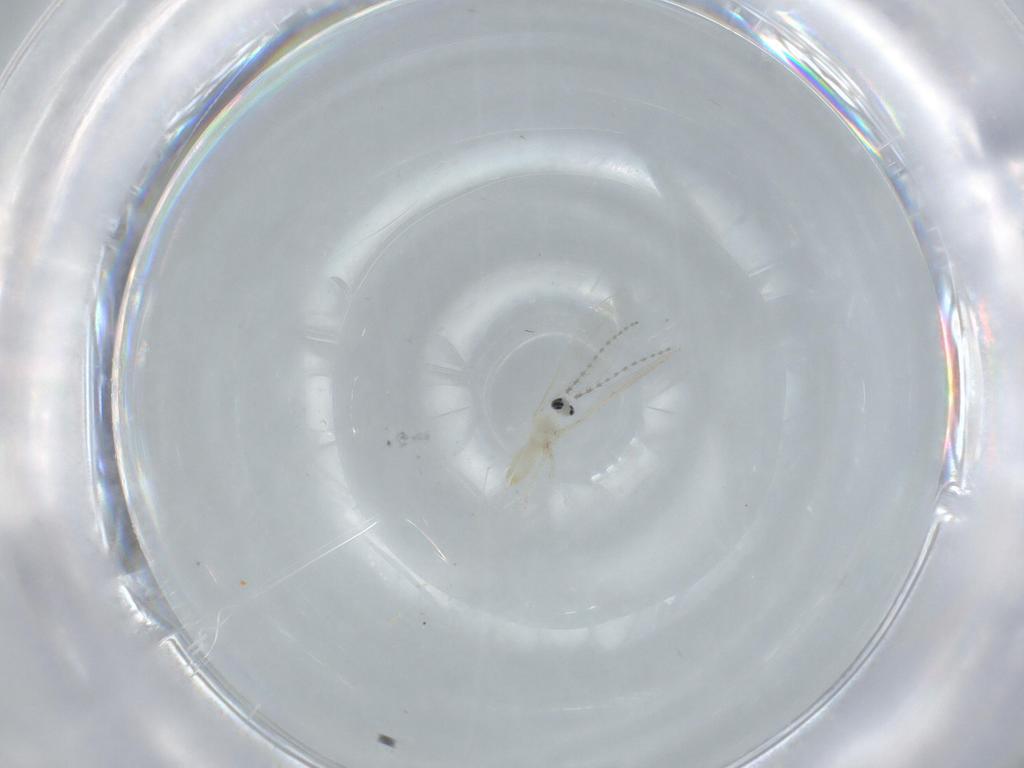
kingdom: Animalia
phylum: Arthropoda
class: Insecta
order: Diptera
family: Cecidomyiidae
